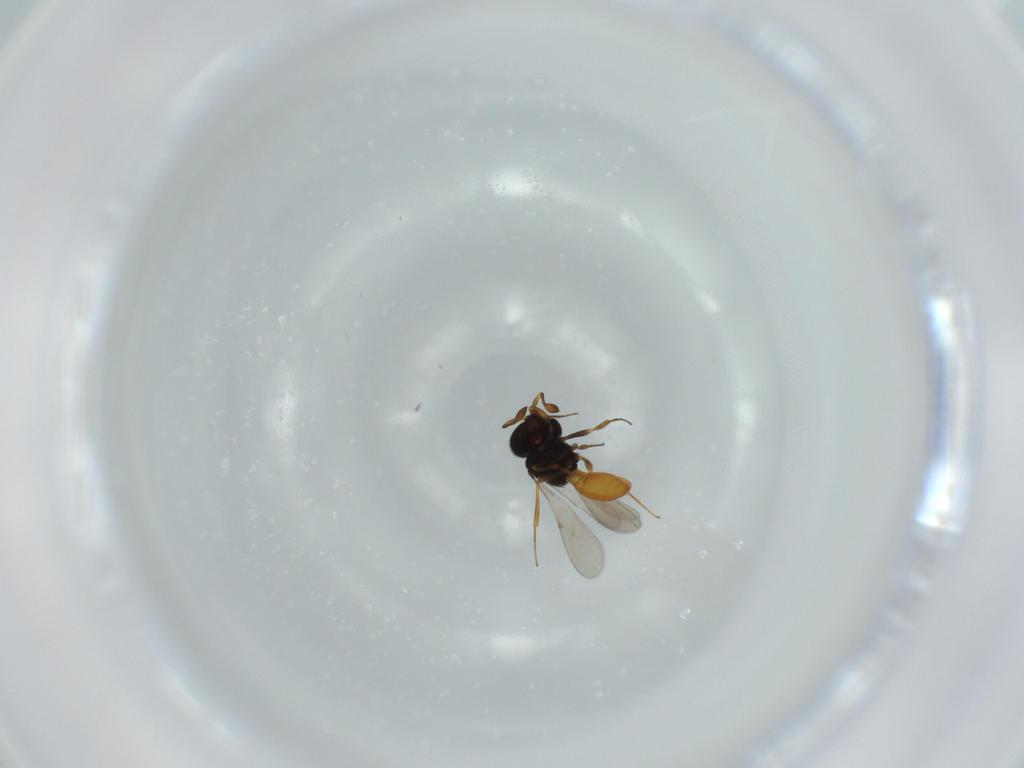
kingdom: Animalia
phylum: Arthropoda
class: Insecta
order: Hymenoptera
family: Scelionidae
